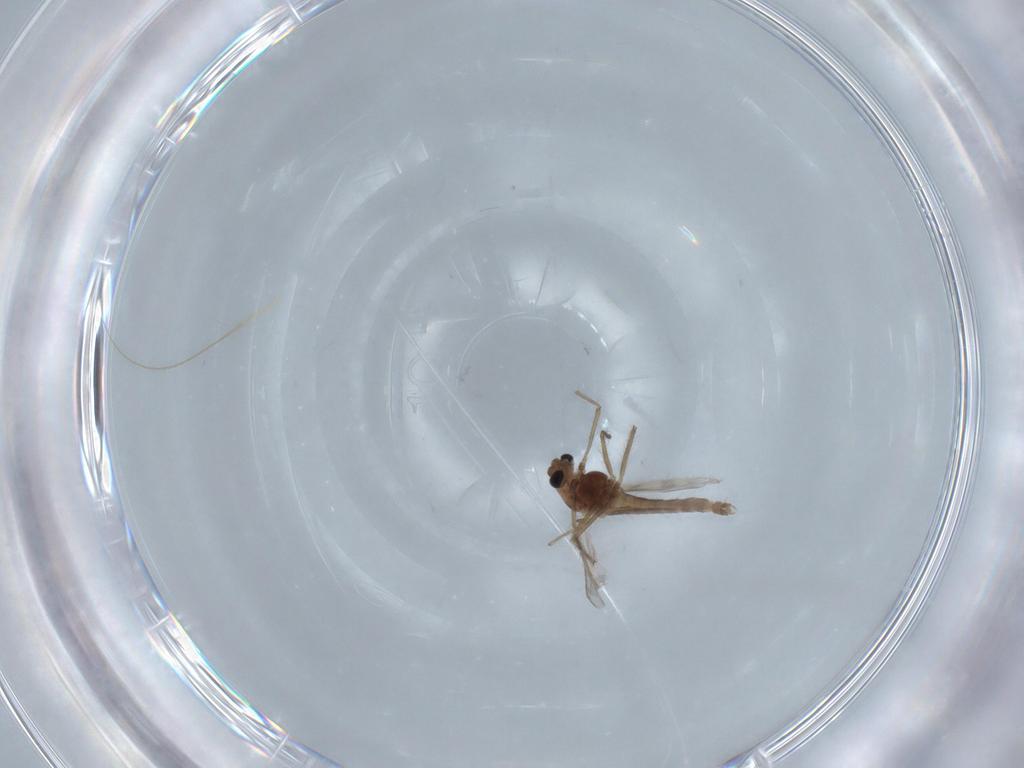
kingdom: Animalia
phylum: Arthropoda
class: Insecta
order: Diptera
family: Chironomidae
